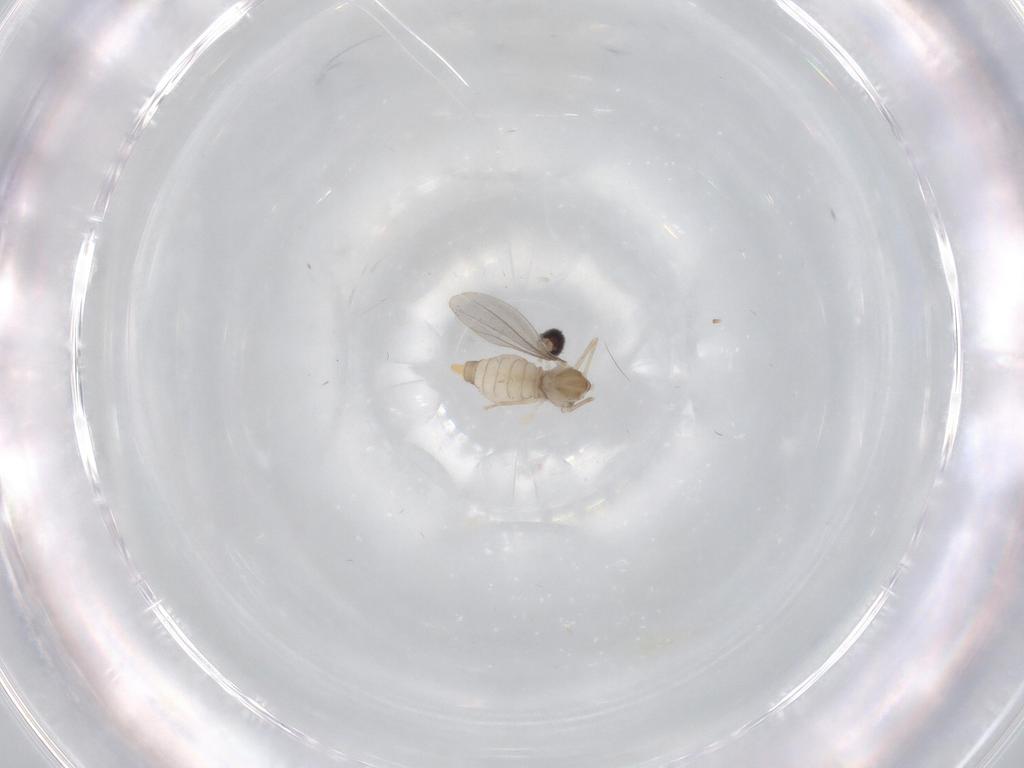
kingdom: Animalia
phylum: Arthropoda
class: Insecta
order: Diptera
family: Cecidomyiidae
